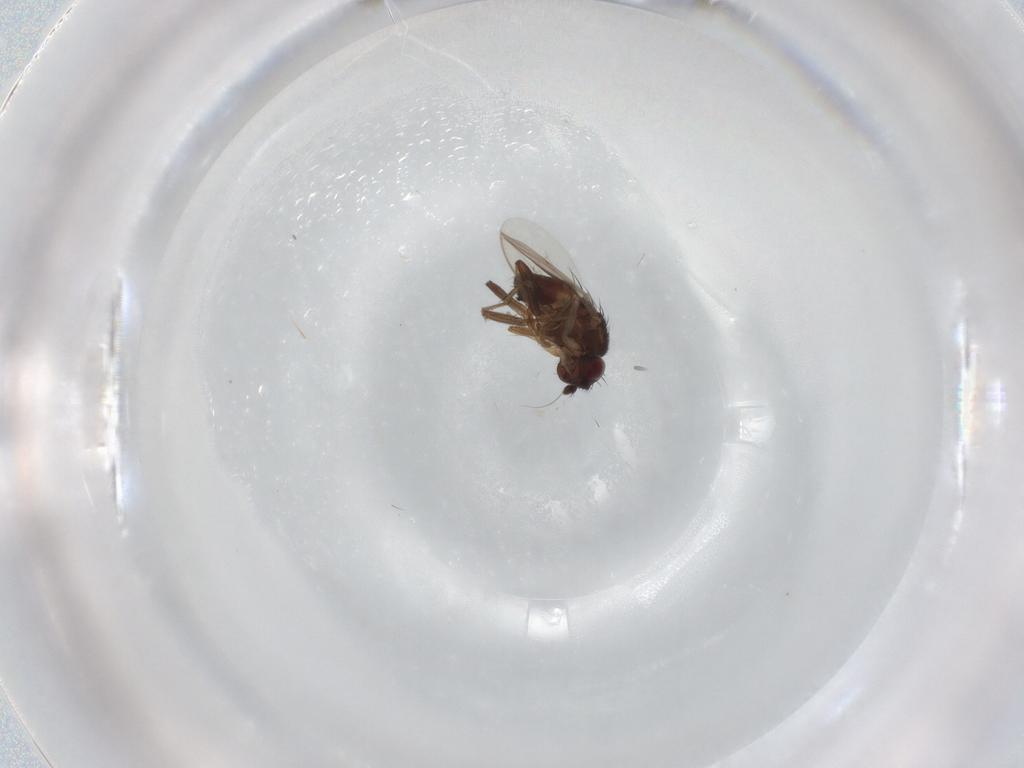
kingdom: Animalia
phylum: Arthropoda
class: Insecta
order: Diptera
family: Sphaeroceridae
